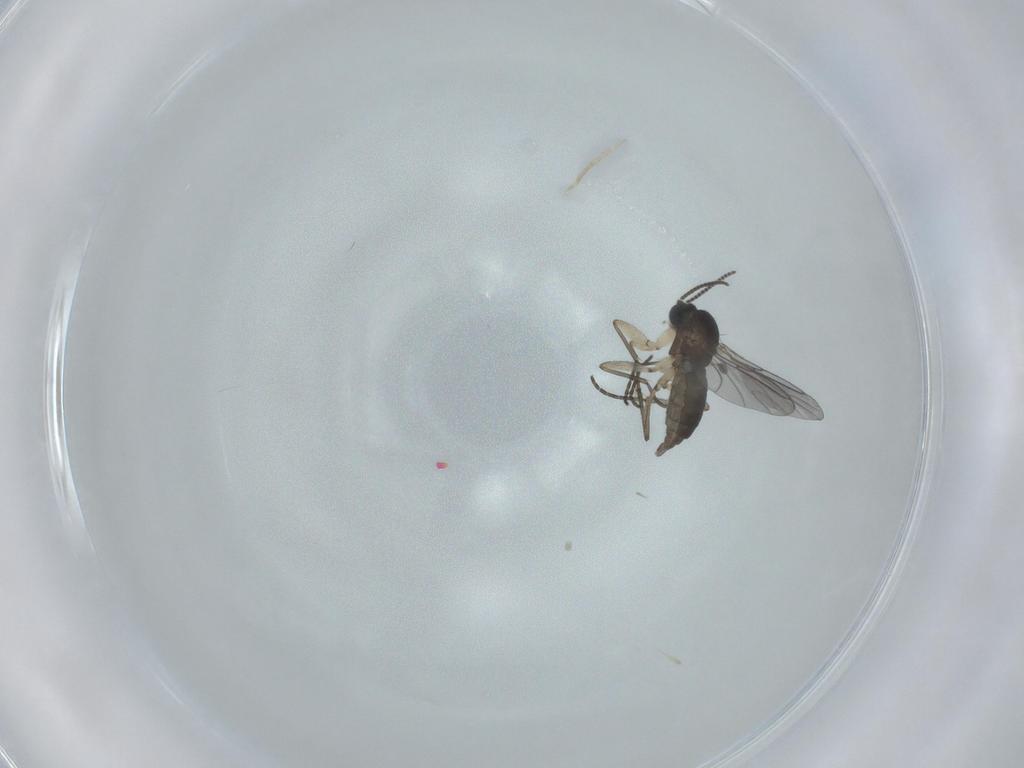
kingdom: Animalia
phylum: Arthropoda
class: Insecta
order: Diptera
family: Sciaridae
